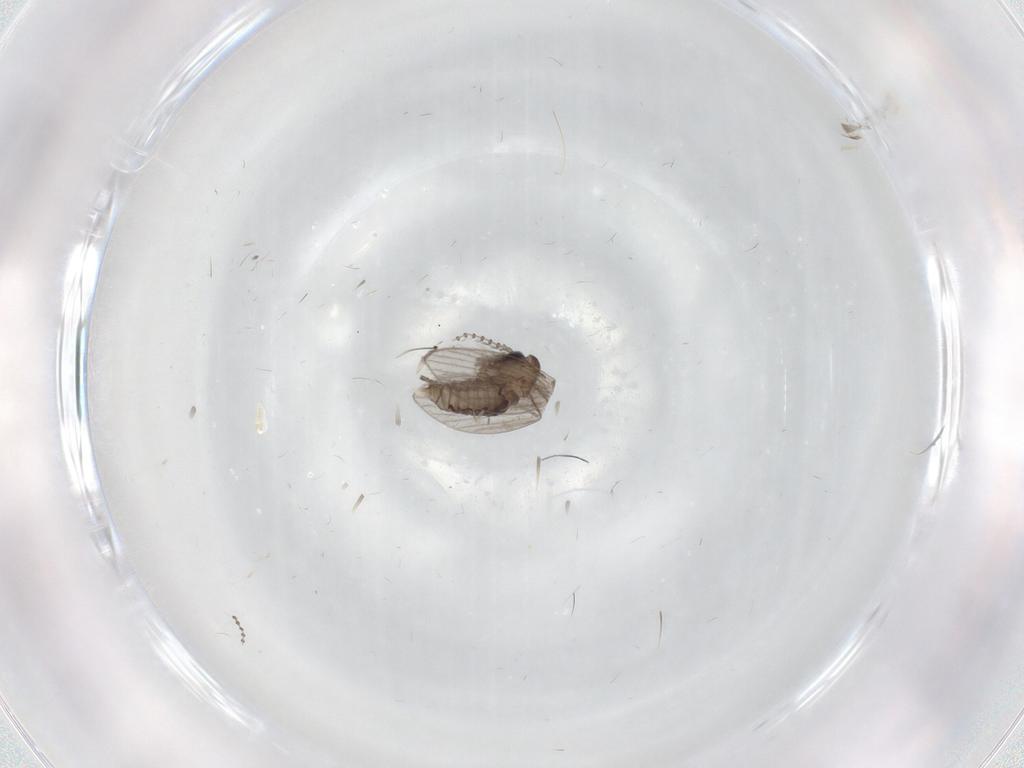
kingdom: Animalia
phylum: Arthropoda
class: Insecta
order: Diptera
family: Psychodidae
